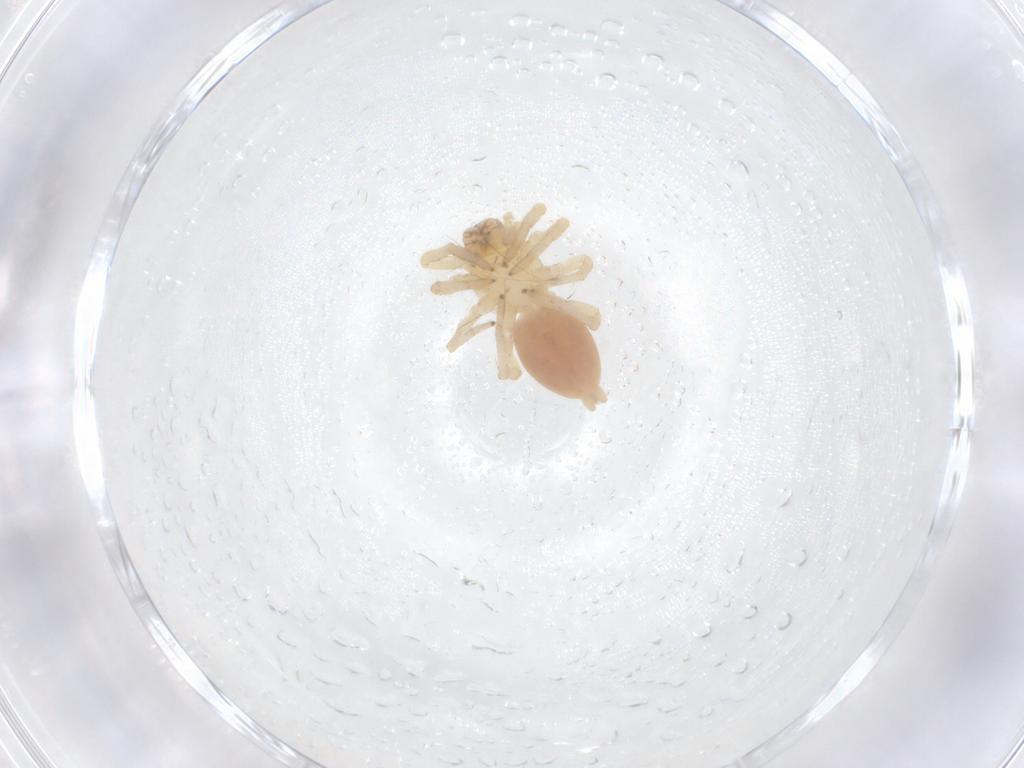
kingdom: Animalia
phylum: Arthropoda
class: Arachnida
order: Araneae
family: Clubionidae
